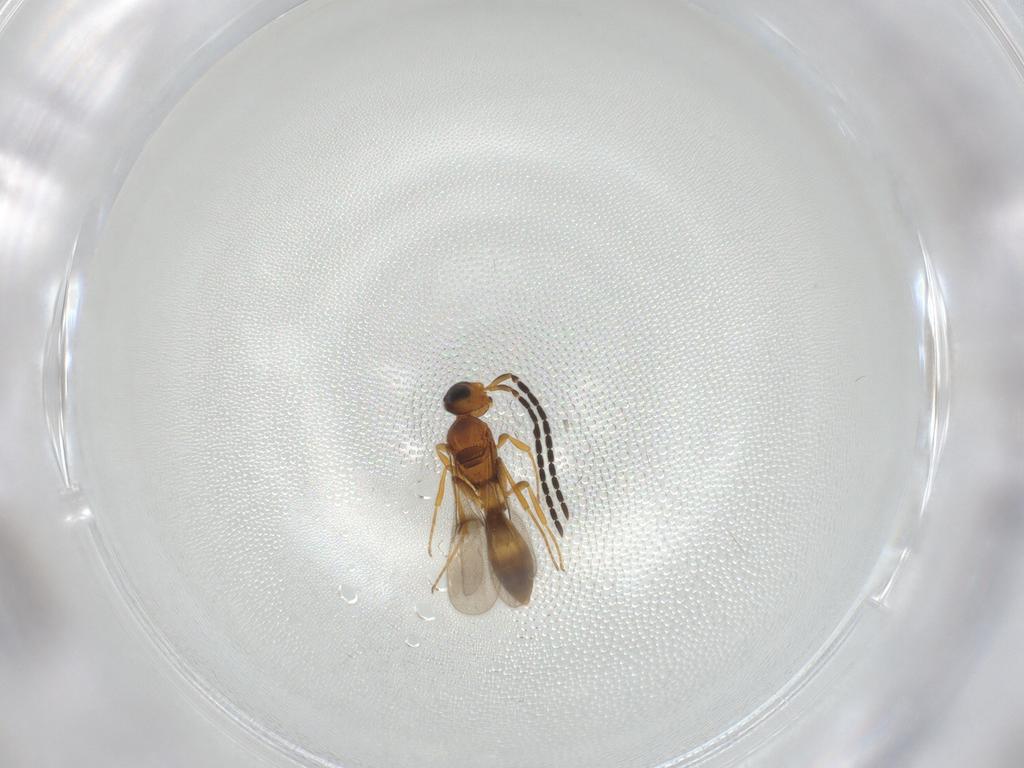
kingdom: Animalia
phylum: Arthropoda
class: Insecta
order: Hymenoptera
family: Scelionidae
